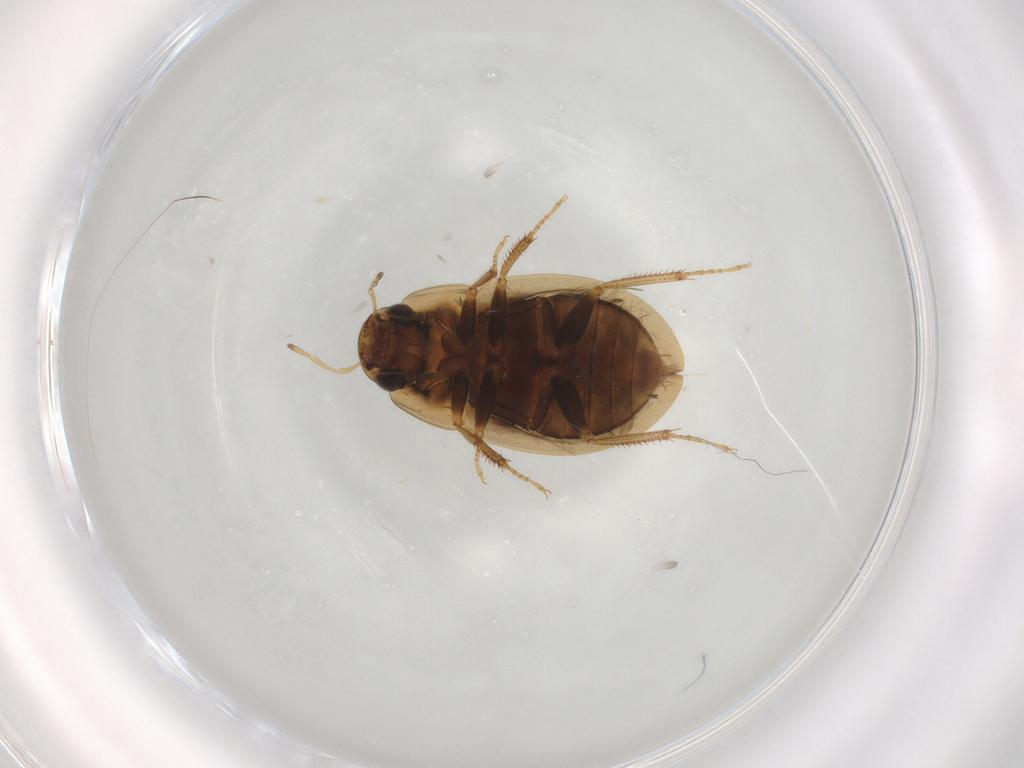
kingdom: Animalia
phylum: Arthropoda
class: Insecta
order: Coleoptera
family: Hydrophilidae
